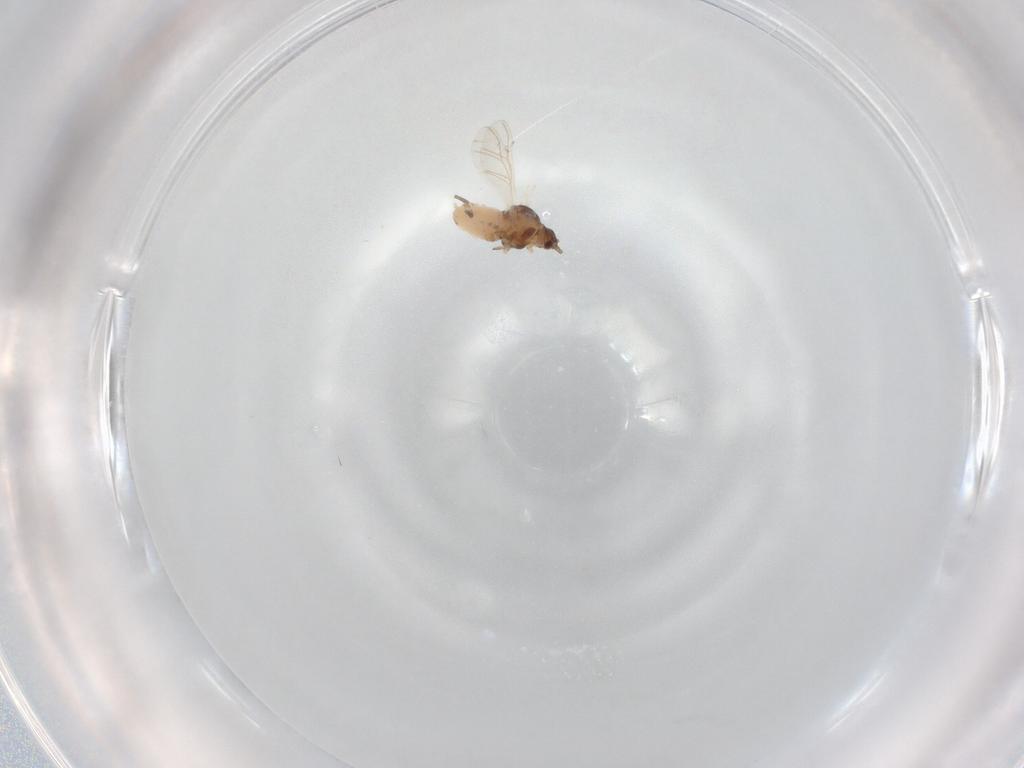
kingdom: Animalia
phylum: Arthropoda
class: Insecta
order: Hemiptera
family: Aphididae
